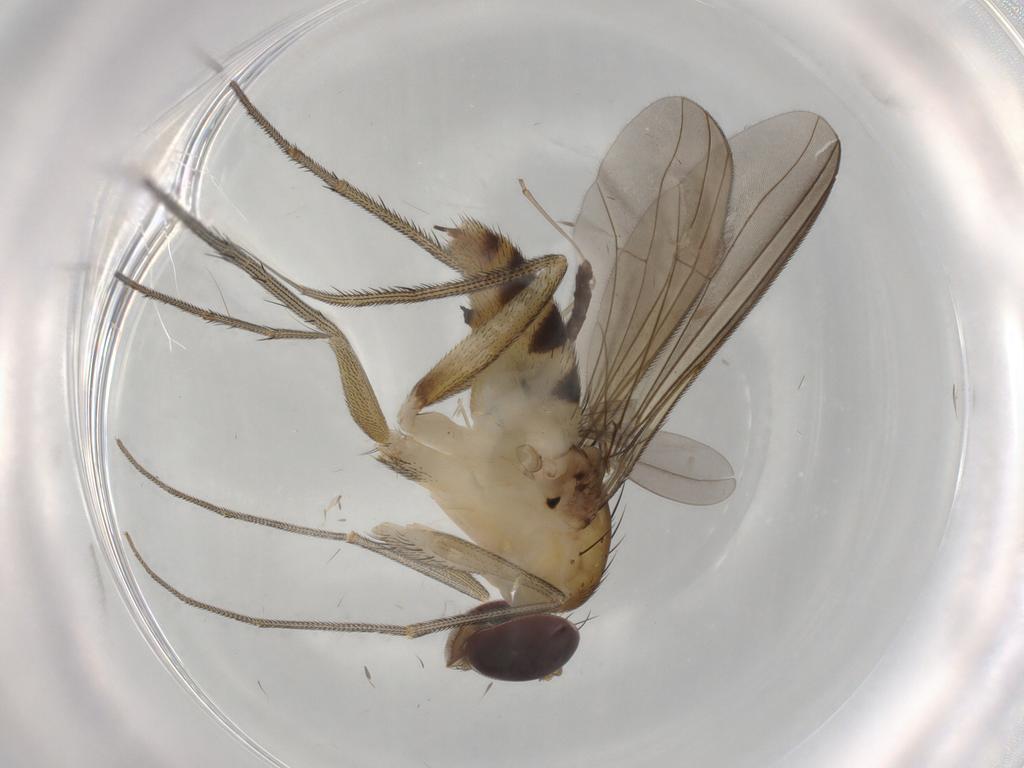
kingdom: Animalia
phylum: Arthropoda
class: Insecta
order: Diptera
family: Dolichopodidae
